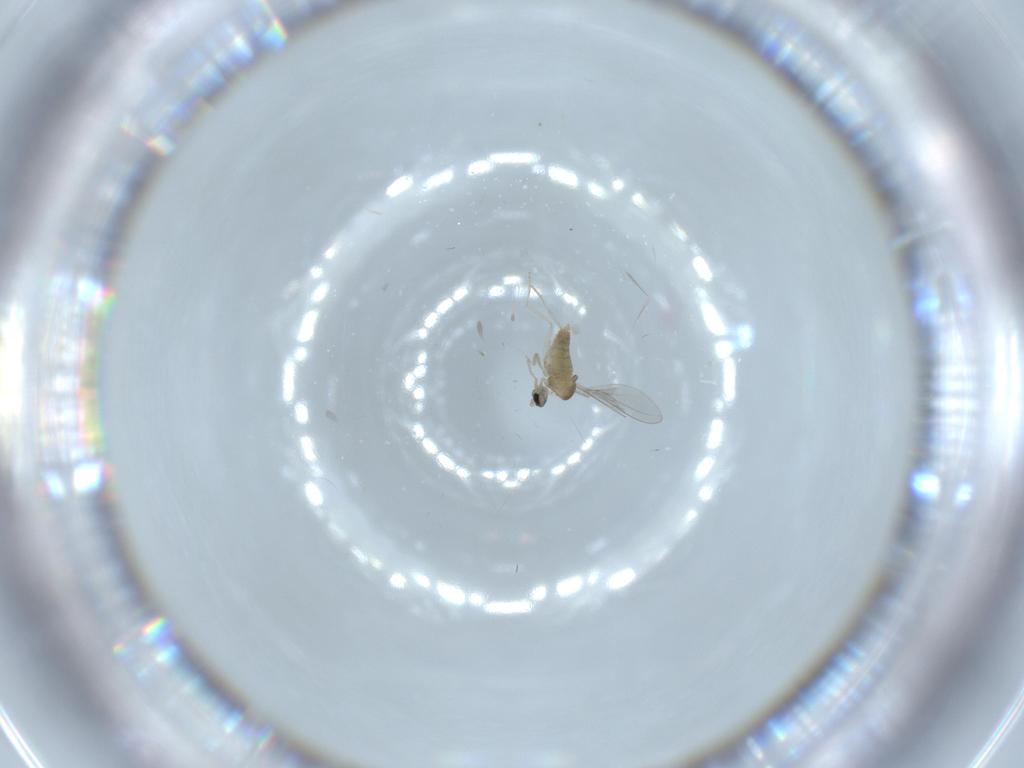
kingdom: Animalia
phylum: Arthropoda
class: Insecta
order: Diptera
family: Cecidomyiidae
